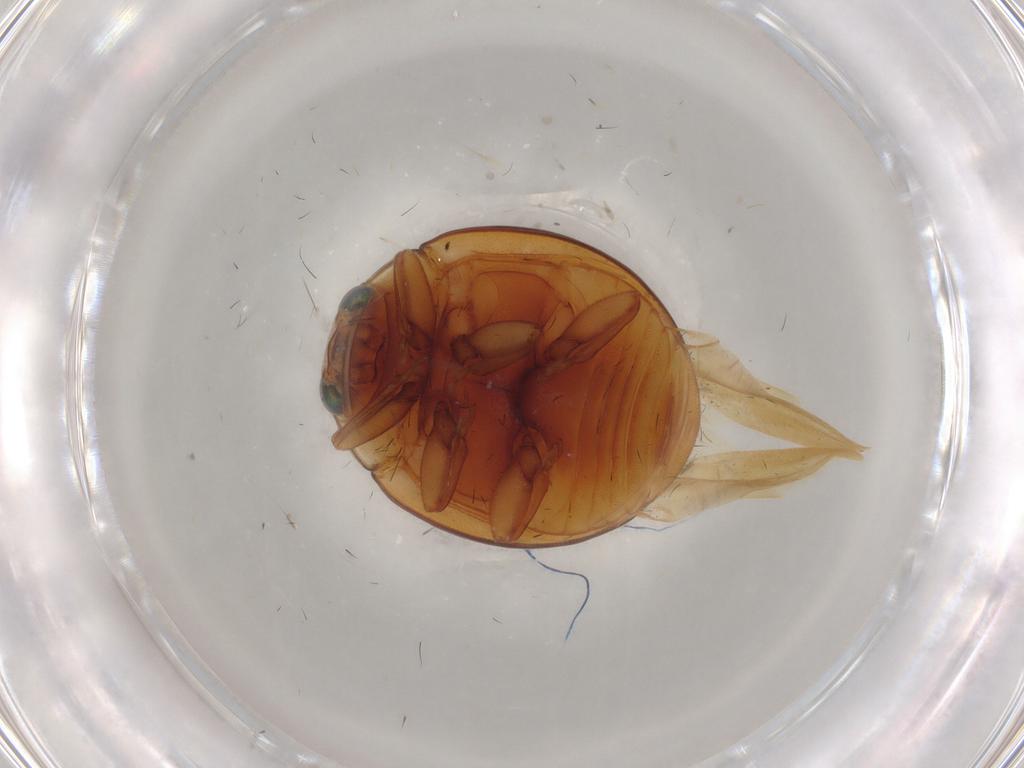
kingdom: Animalia
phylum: Arthropoda
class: Insecta
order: Coleoptera
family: Coccinellidae
